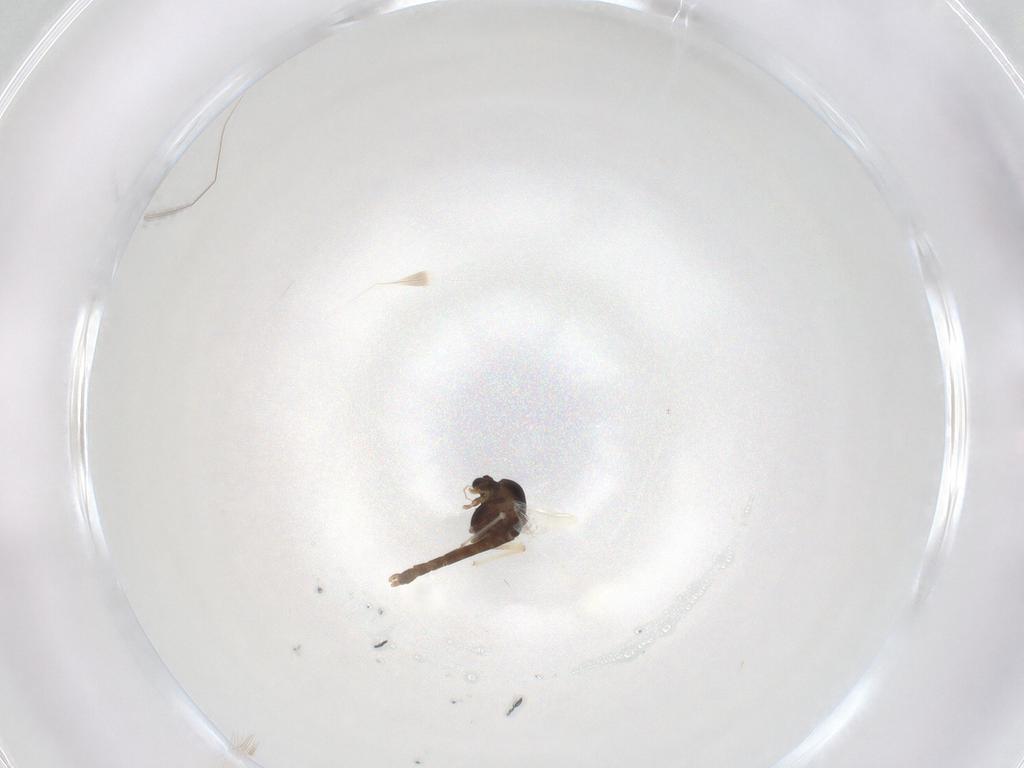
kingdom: Animalia
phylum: Arthropoda
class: Insecta
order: Diptera
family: Chironomidae
